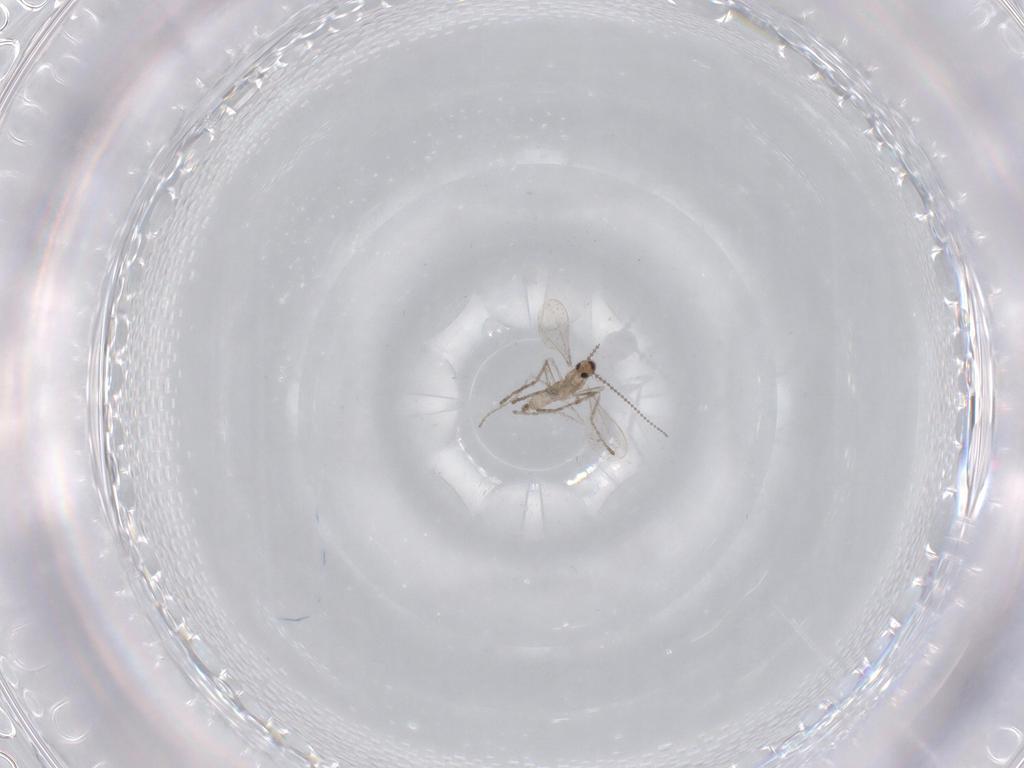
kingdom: Animalia
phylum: Arthropoda
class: Insecta
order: Diptera
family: Cecidomyiidae
